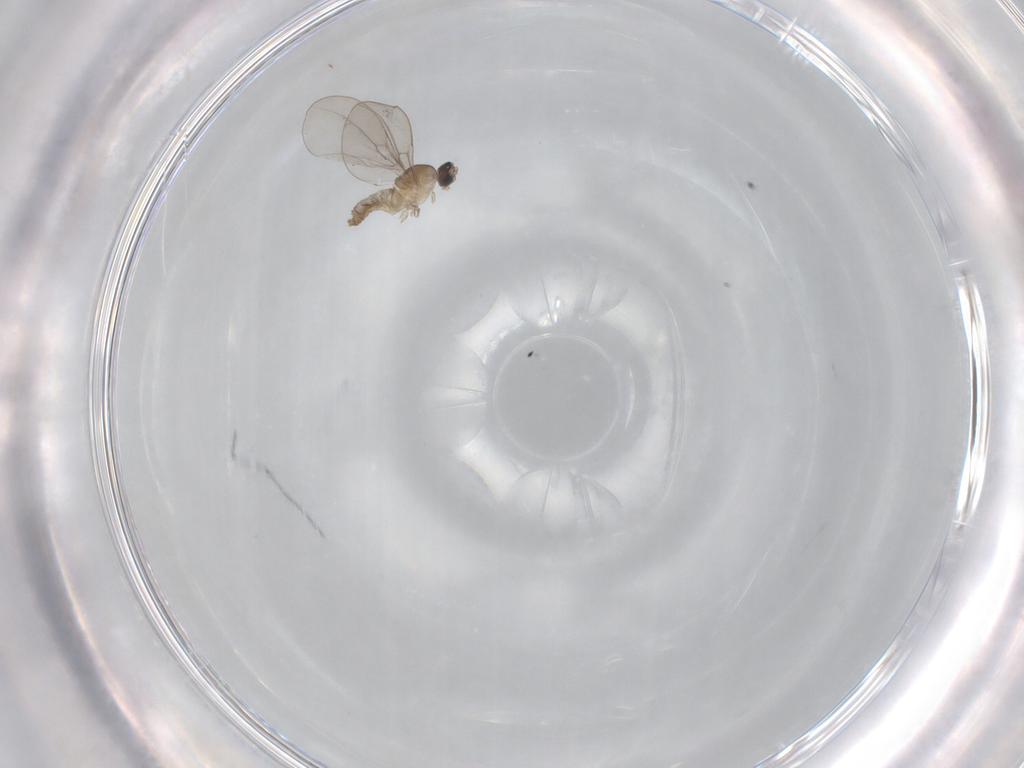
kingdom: Animalia
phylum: Arthropoda
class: Insecta
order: Diptera
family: Cecidomyiidae
